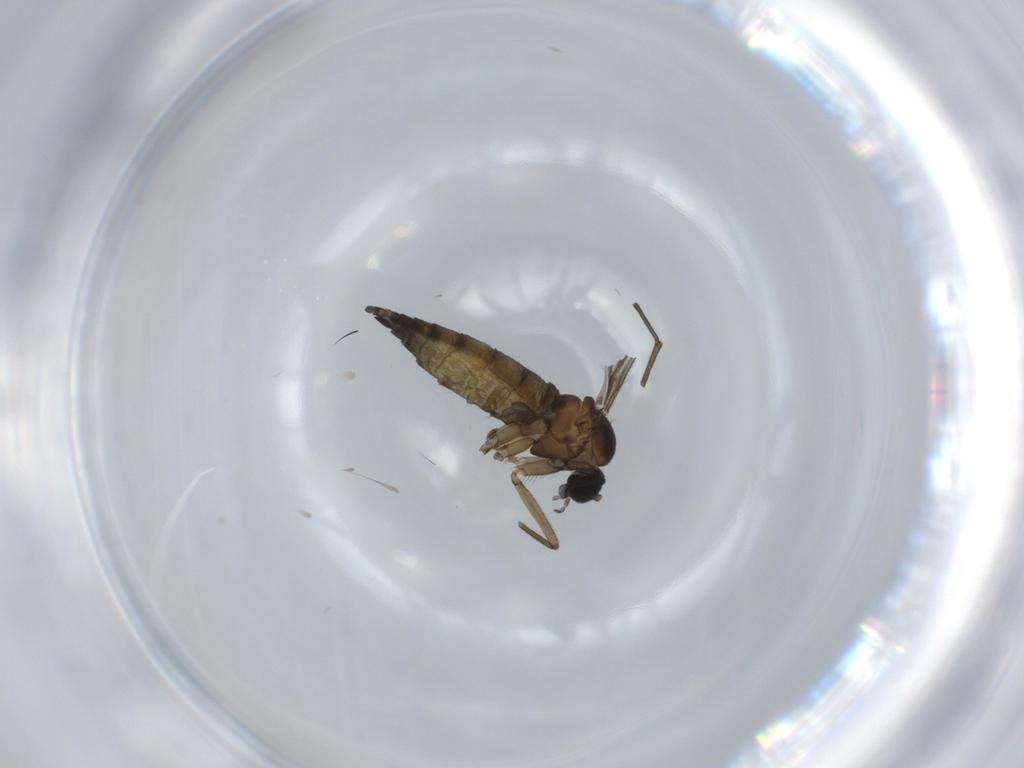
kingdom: Animalia
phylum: Arthropoda
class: Insecta
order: Diptera
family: Sciaridae
